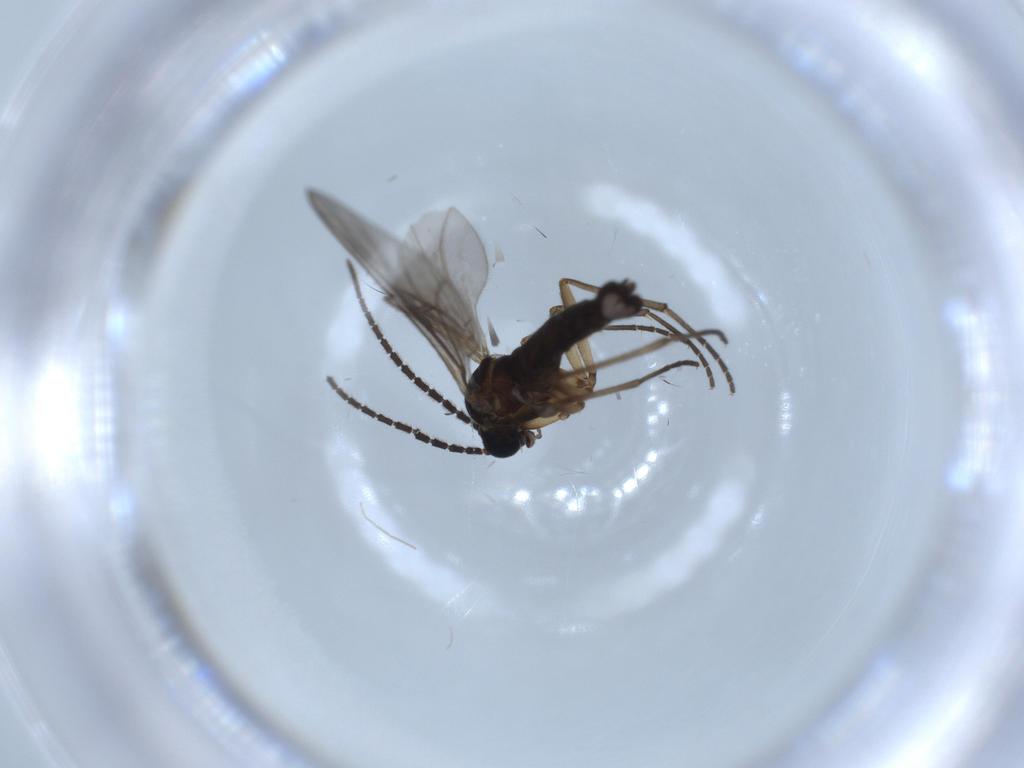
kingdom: Animalia
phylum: Arthropoda
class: Insecta
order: Diptera
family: Sciaridae
